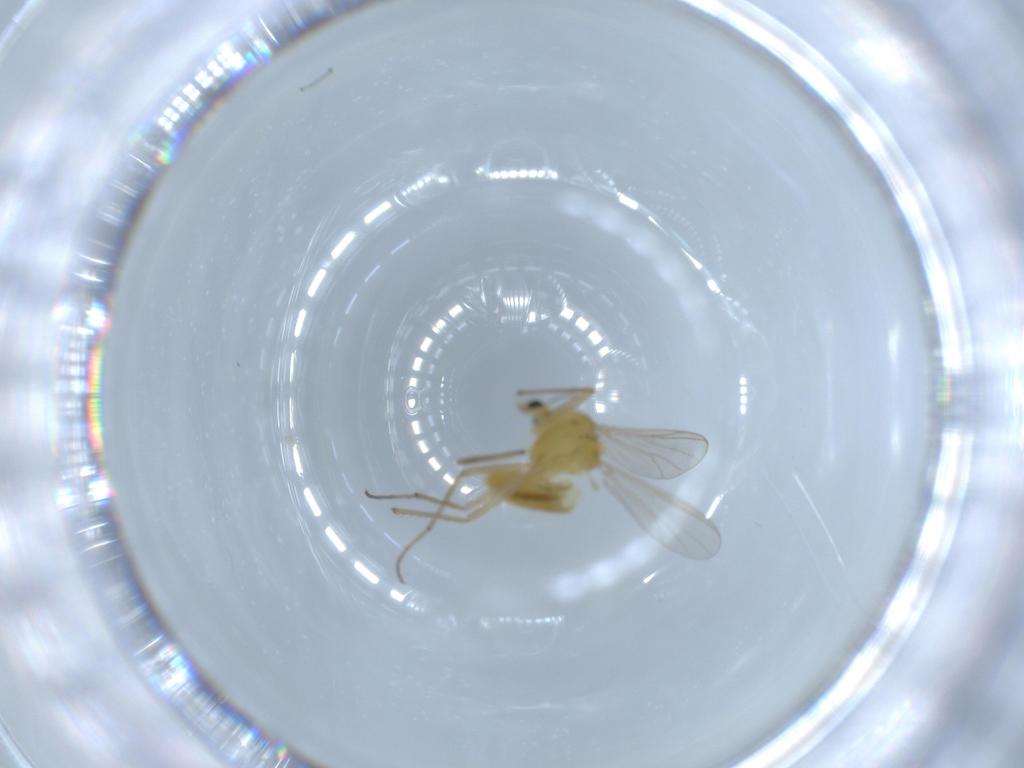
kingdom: Animalia
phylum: Arthropoda
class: Insecta
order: Diptera
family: Chironomidae
